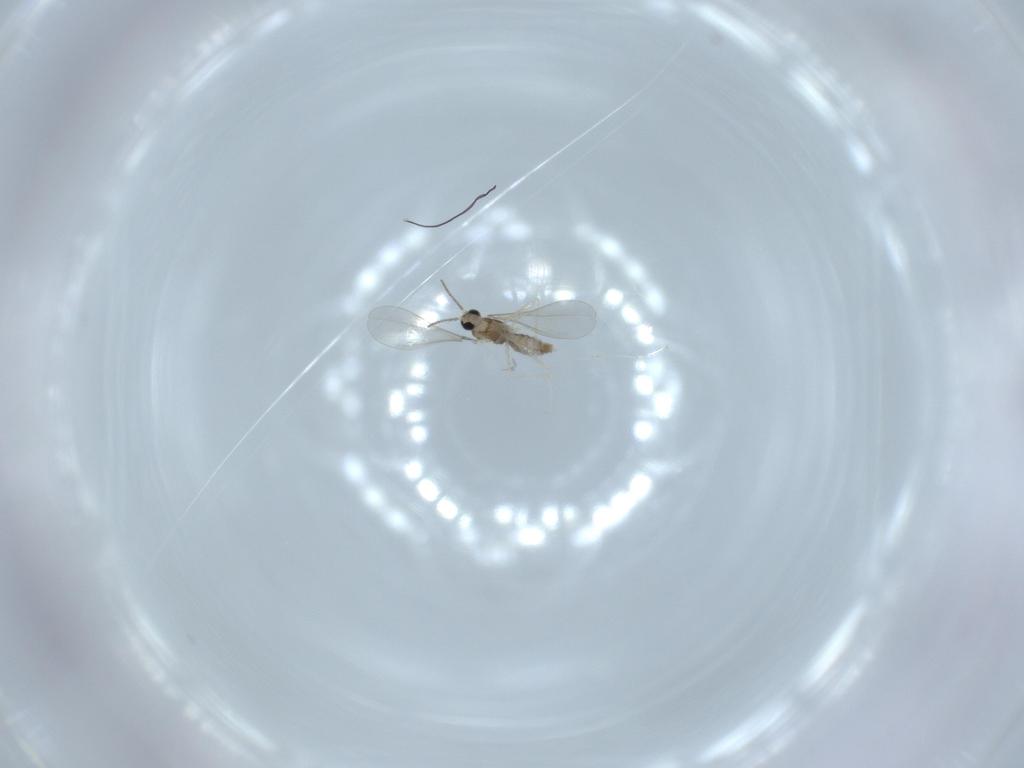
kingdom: Animalia
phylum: Arthropoda
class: Insecta
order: Diptera
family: Cecidomyiidae
